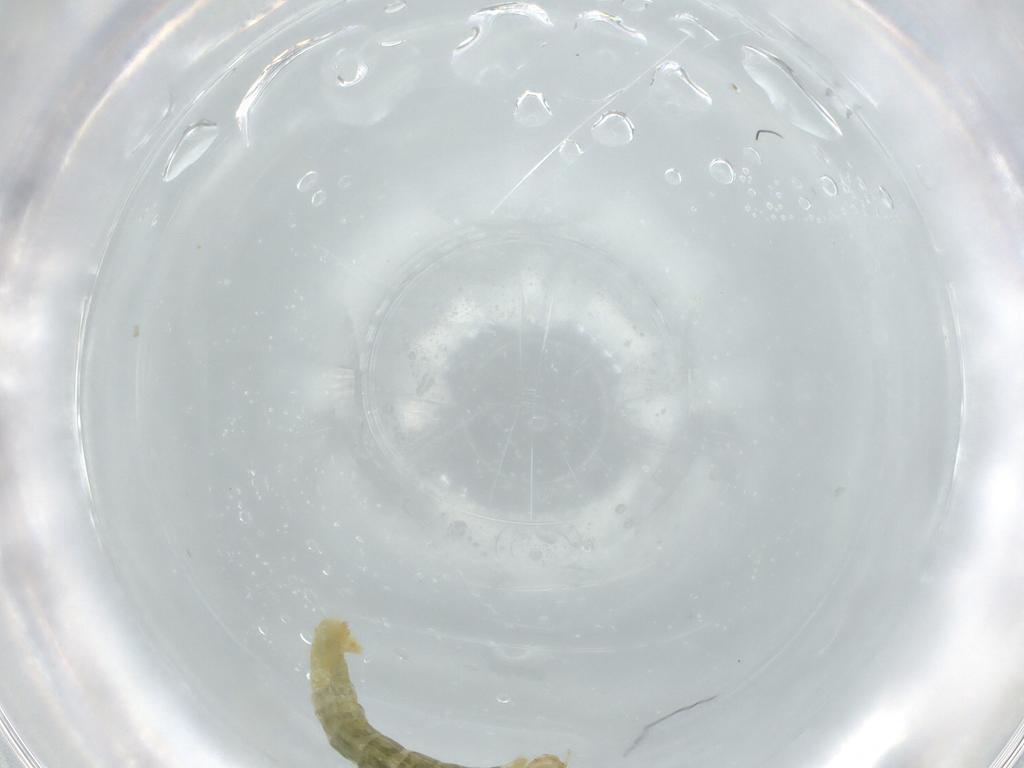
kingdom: Animalia
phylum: Arthropoda
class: Insecta
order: Diptera
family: Chironomidae
